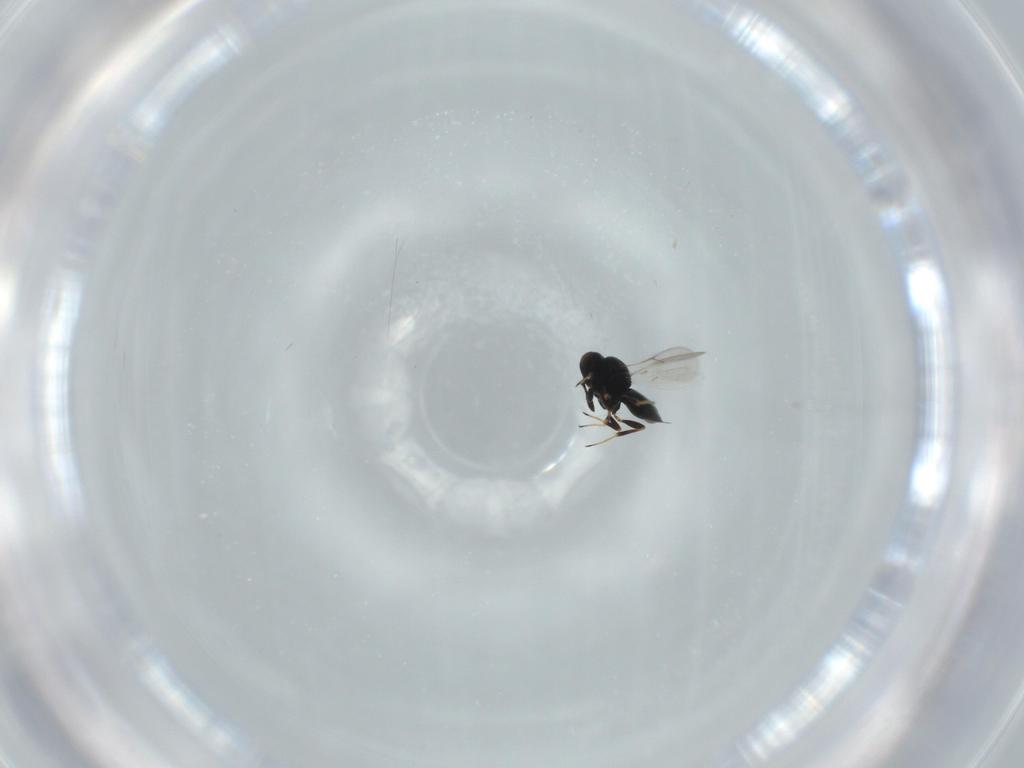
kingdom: Animalia
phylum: Arthropoda
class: Insecta
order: Hymenoptera
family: Scelionidae
